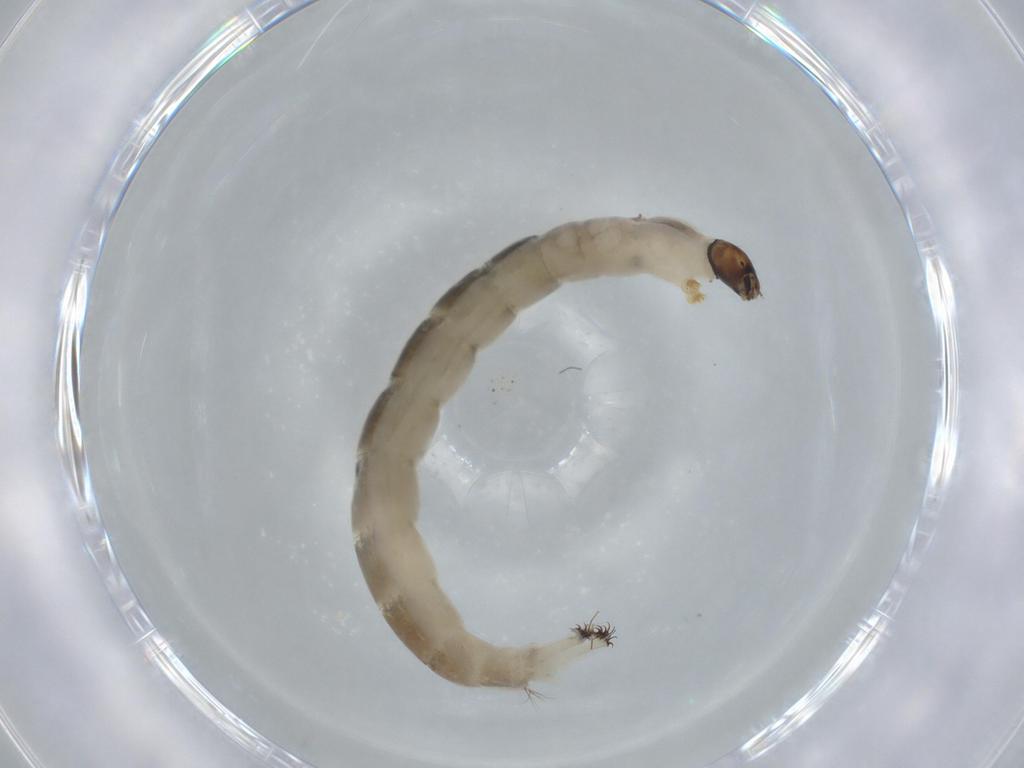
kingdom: Animalia
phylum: Arthropoda
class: Insecta
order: Diptera
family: Chironomidae
